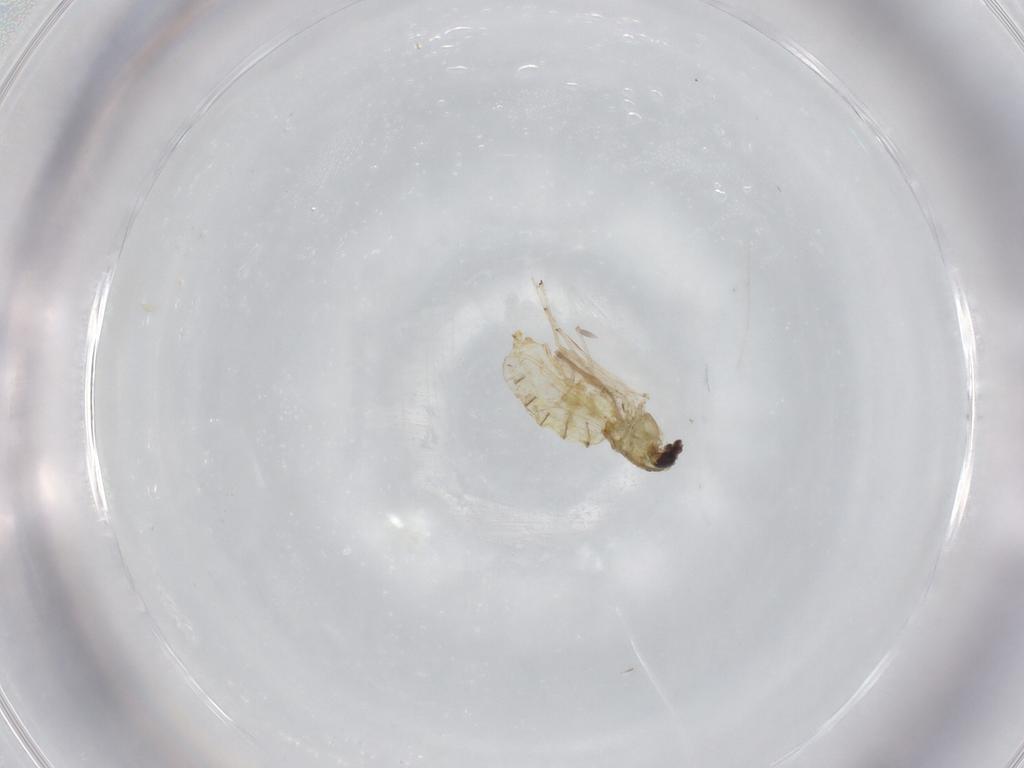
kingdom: Animalia
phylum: Arthropoda
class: Insecta
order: Diptera
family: Chironomidae
